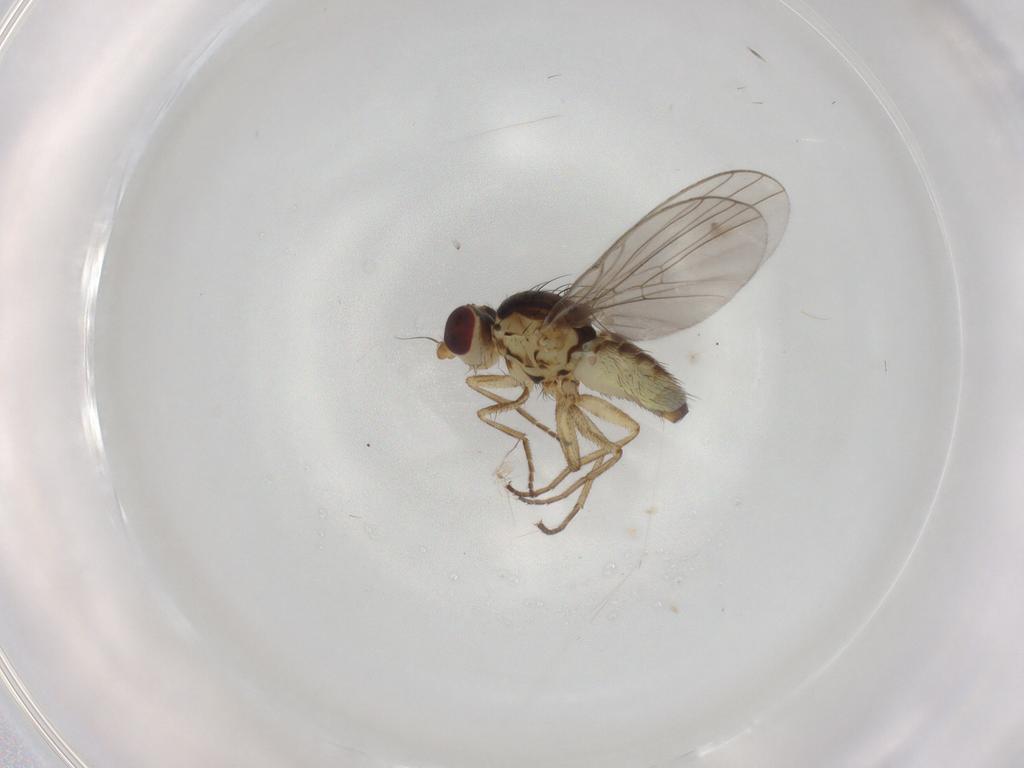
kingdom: Animalia
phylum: Arthropoda
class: Insecta
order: Diptera
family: Agromyzidae
